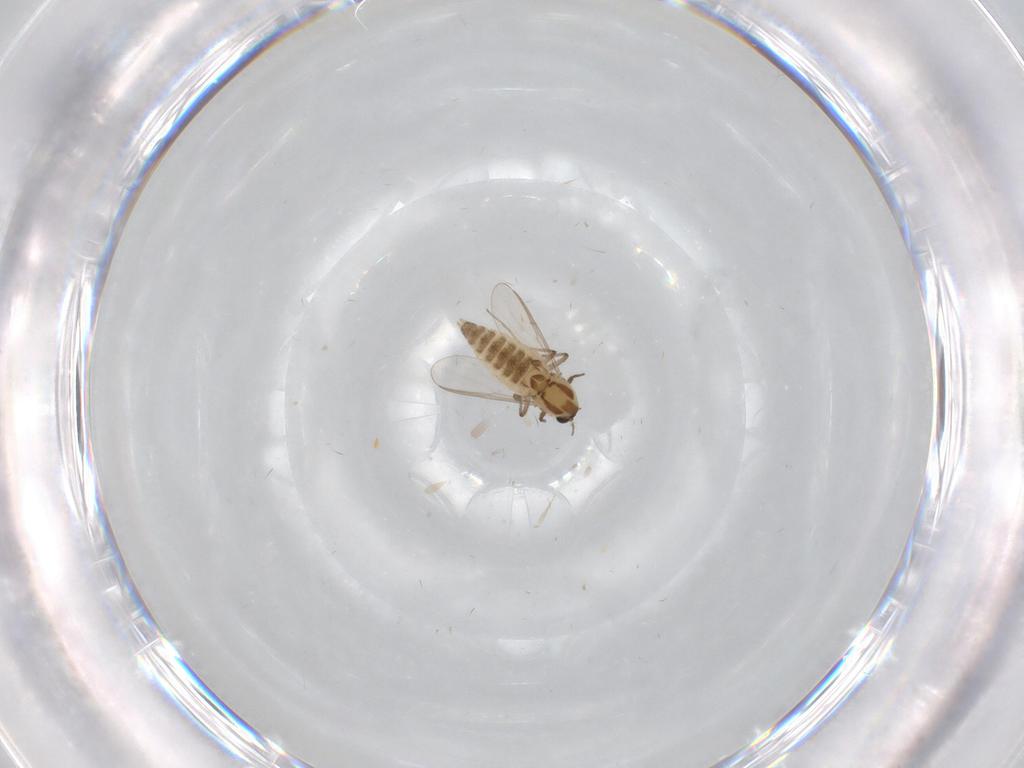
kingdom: Animalia
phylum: Arthropoda
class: Insecta
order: Diptera
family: Chironomidae
